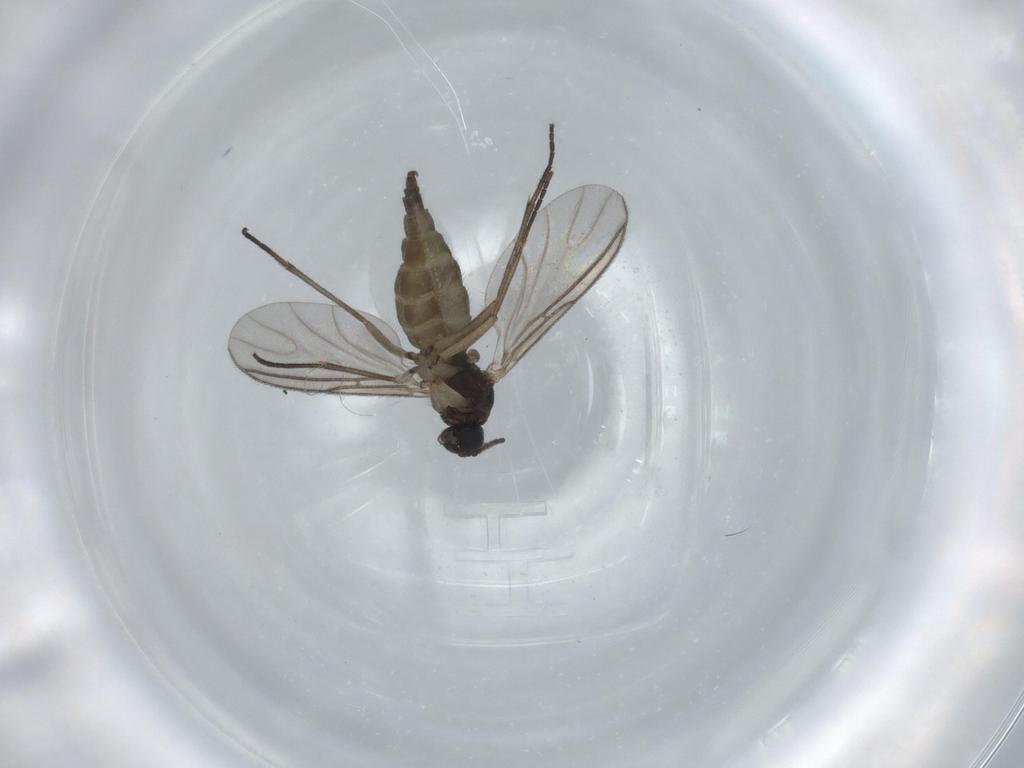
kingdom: Animalia
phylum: Arthropoda
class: Insecta
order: Diptera
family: Sciaridae
